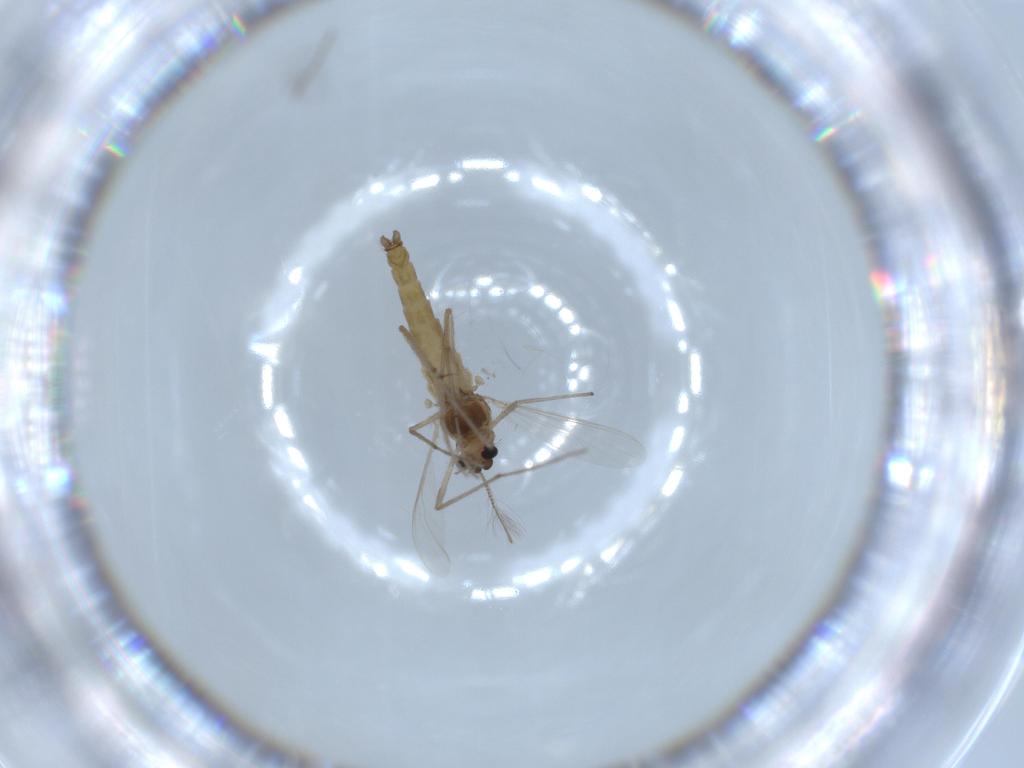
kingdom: Animalia
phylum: Arthropoda
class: Insecta
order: Diptera
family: Chironomidae
